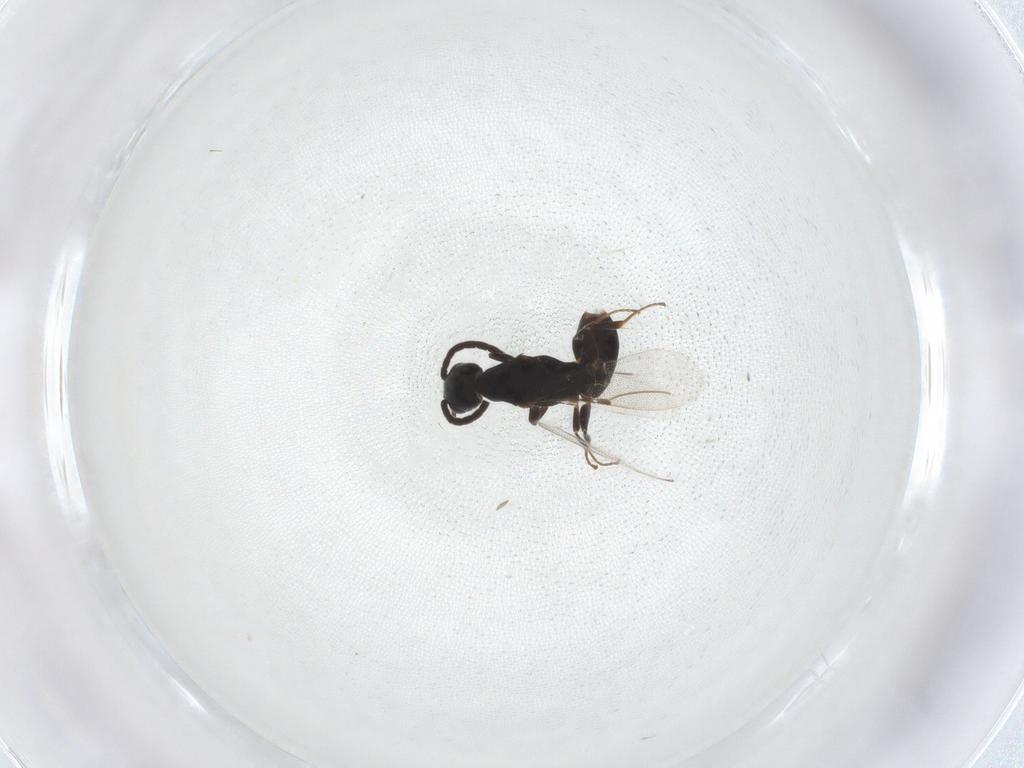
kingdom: Animalia
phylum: Arthropoda
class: Insecta
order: Hymenoptera
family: Bethylidae
